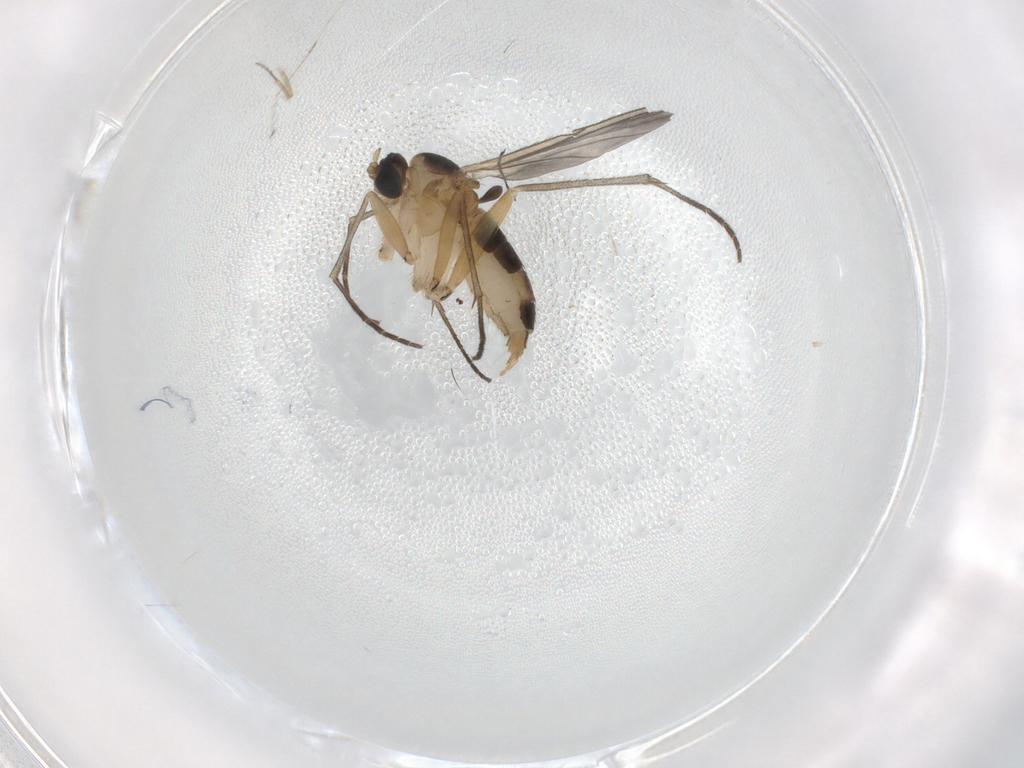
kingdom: Animalia
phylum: Arthropoda
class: Insecta
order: Diptera
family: Sciaridae
